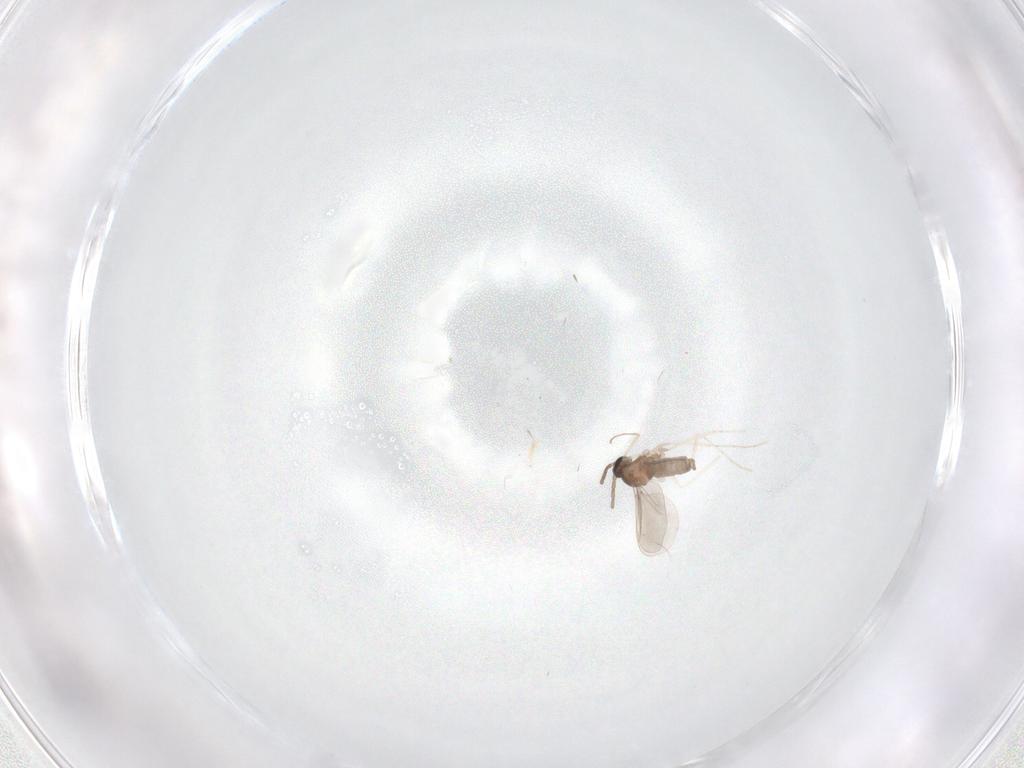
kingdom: Animalia
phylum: Arthropoda
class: Insecta
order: Diptera
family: Cecidomyiidae
